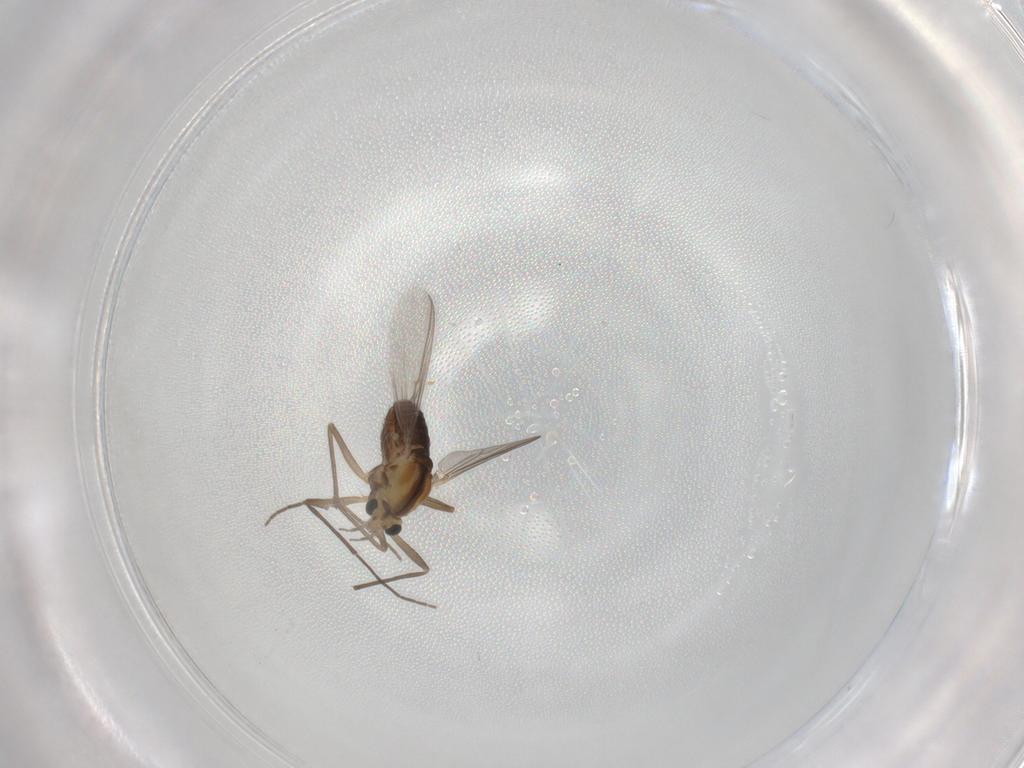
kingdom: Animalia
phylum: Arthropoda
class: Insecta
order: Diptera
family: Chironomidae
